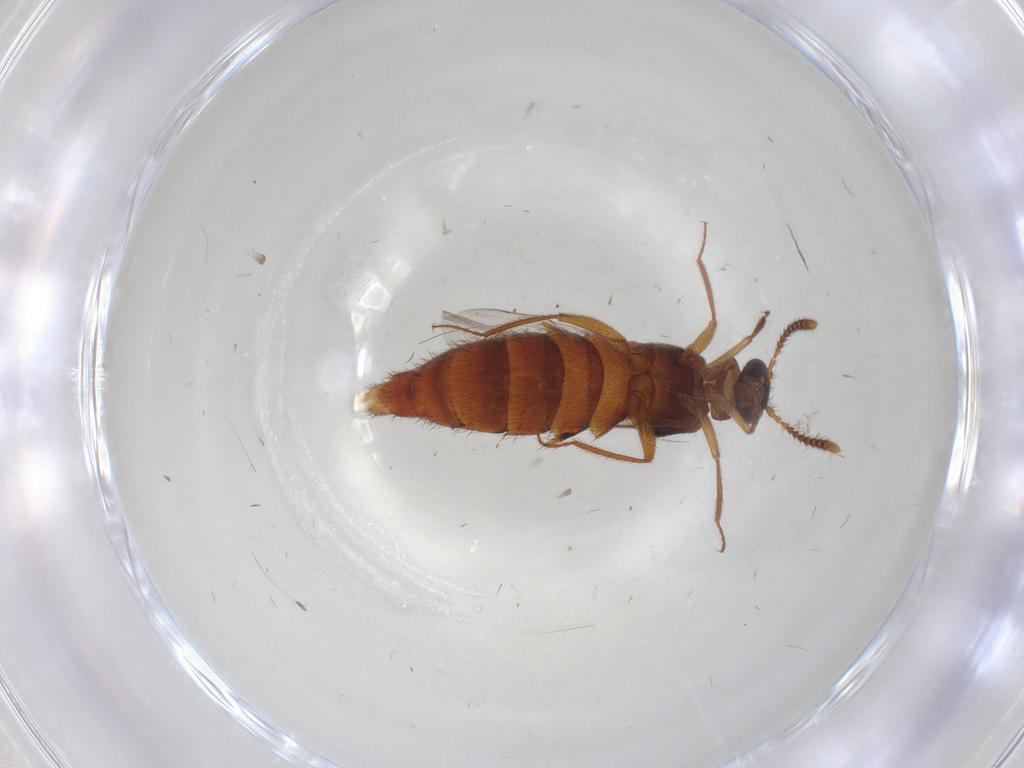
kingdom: Animalia
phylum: Arthropoda
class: Insecta
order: Coleoptera
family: Staphylinidae
